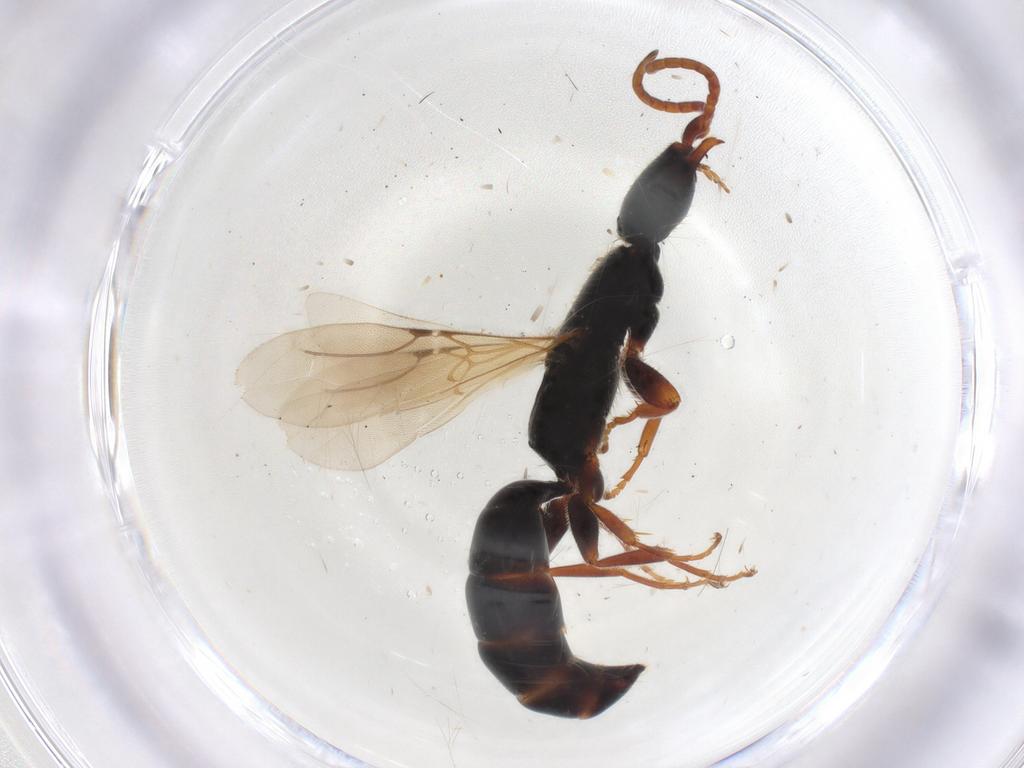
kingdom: Animalia
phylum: Arthropoda
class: Insecta
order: Hymenoptera
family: Bethylidae
